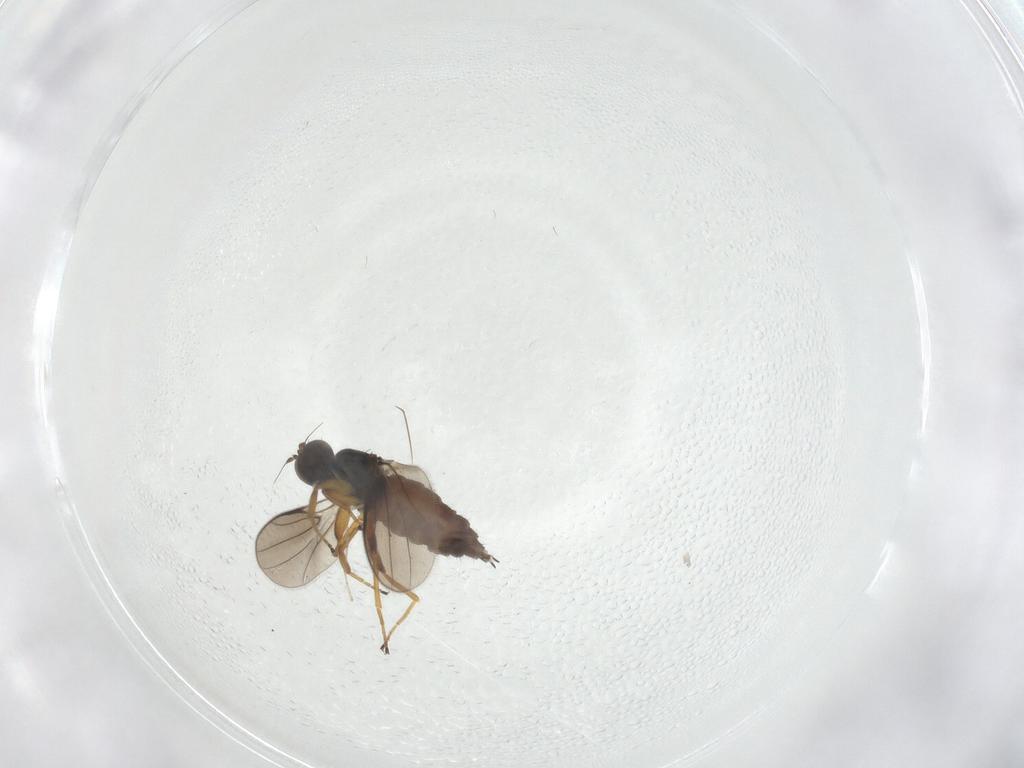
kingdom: Animalia
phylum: Arthropoda
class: Insecta
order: Diptera
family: Hybotidae
